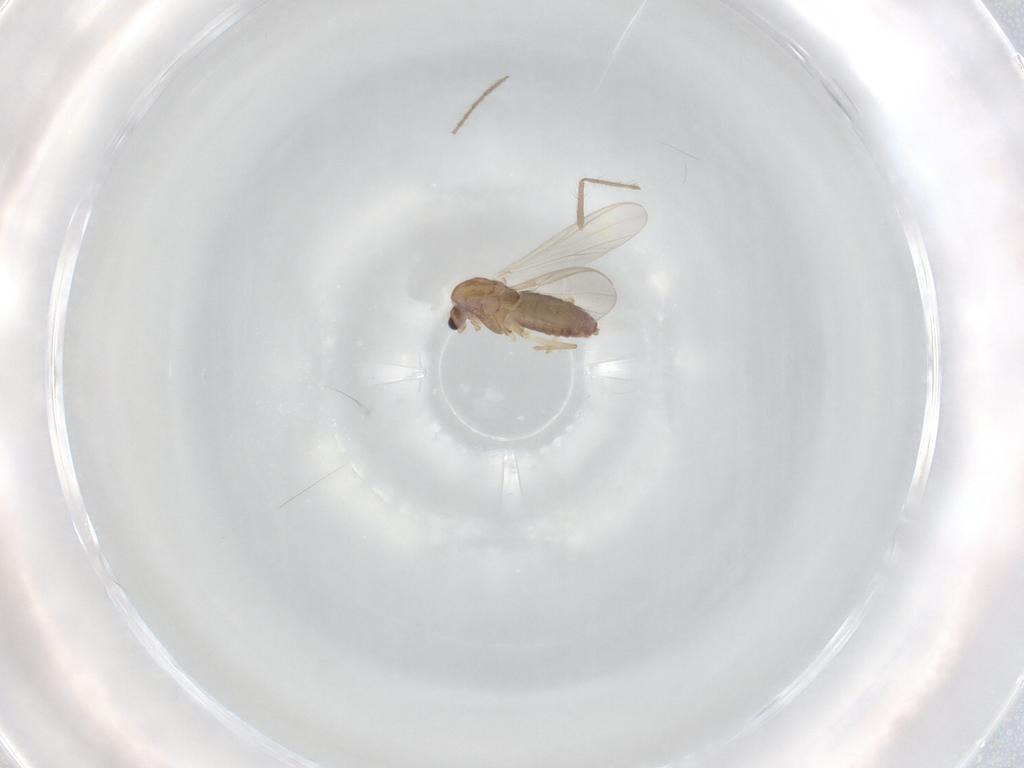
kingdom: Animalia
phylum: Arthropoda
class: Insecta
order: Diptera
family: Chironomidae
